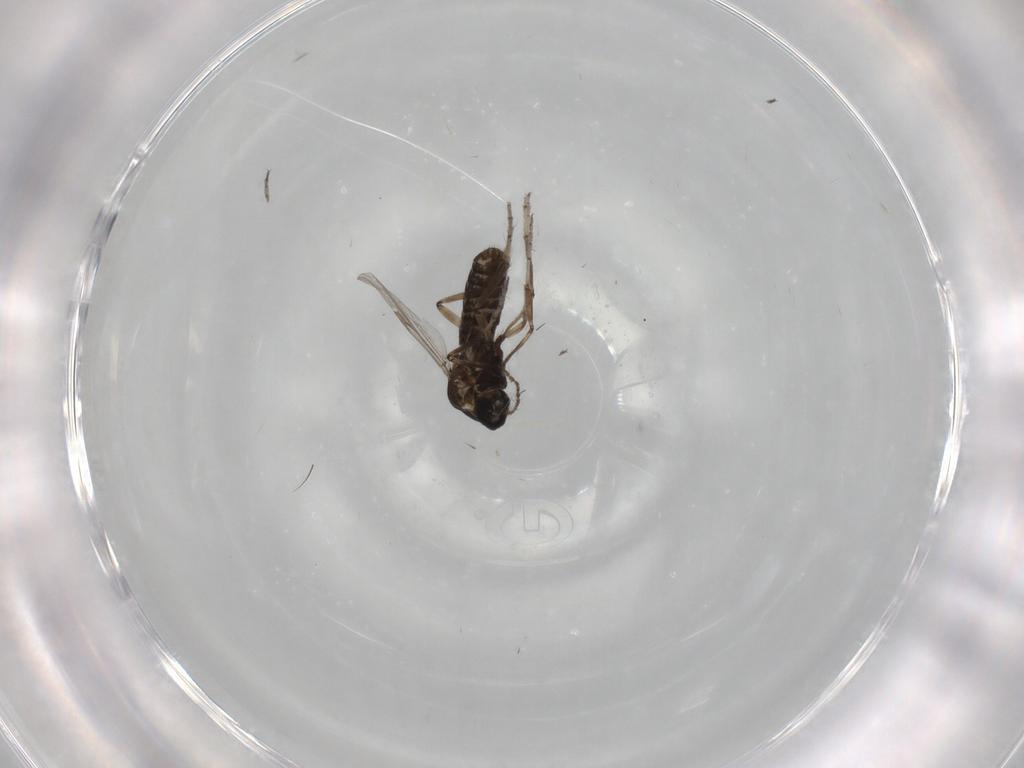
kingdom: Animalia
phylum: Arthropoda
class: Insecta
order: Diptera
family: Ceratopogonidae
